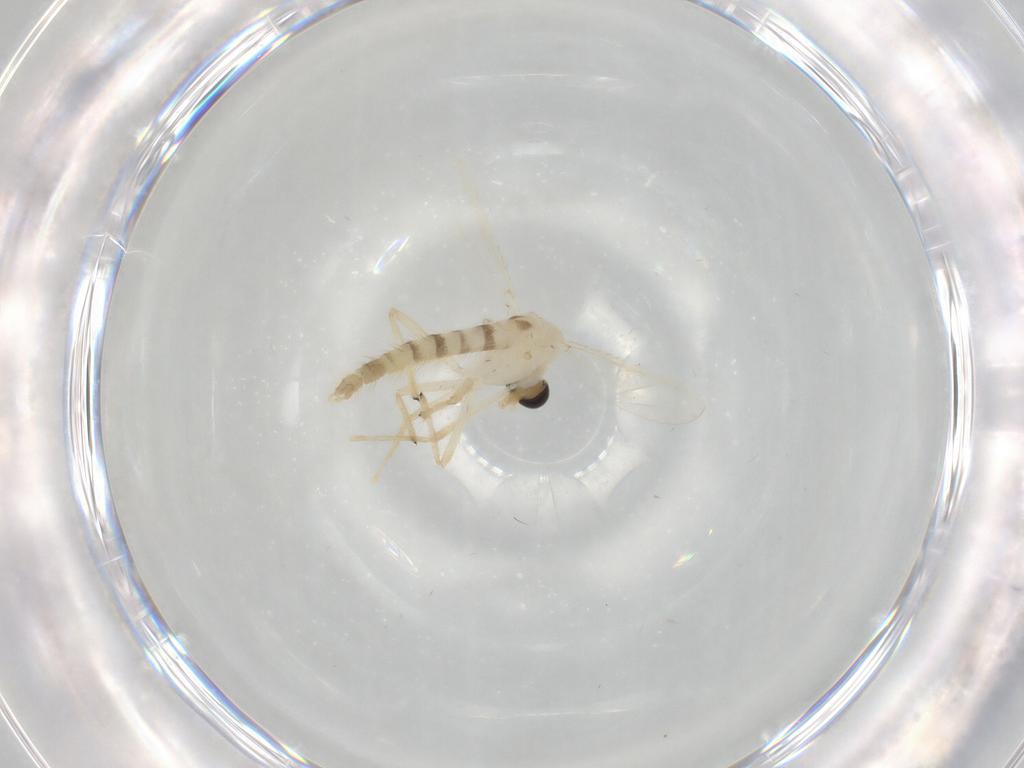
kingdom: Animalia
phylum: Arthropoda
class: Insecta
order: Diptera
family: Chironomidae
